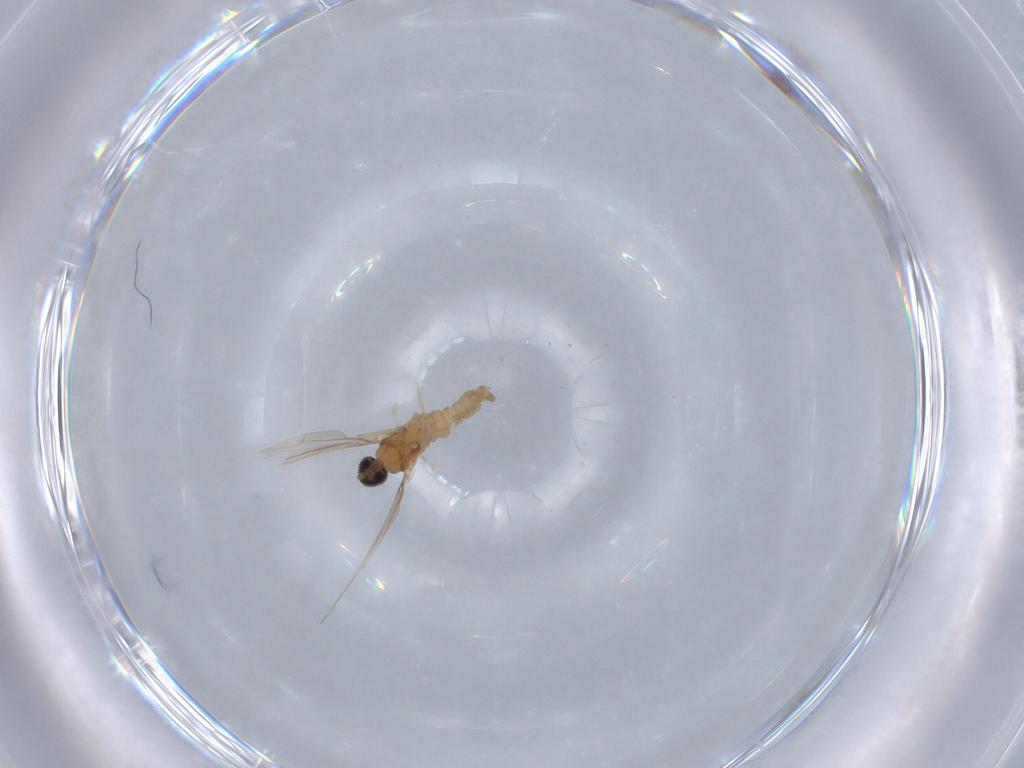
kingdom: Animalia
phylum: Arthropoda
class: Insecta
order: Diptera
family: Cecidomyiidae
